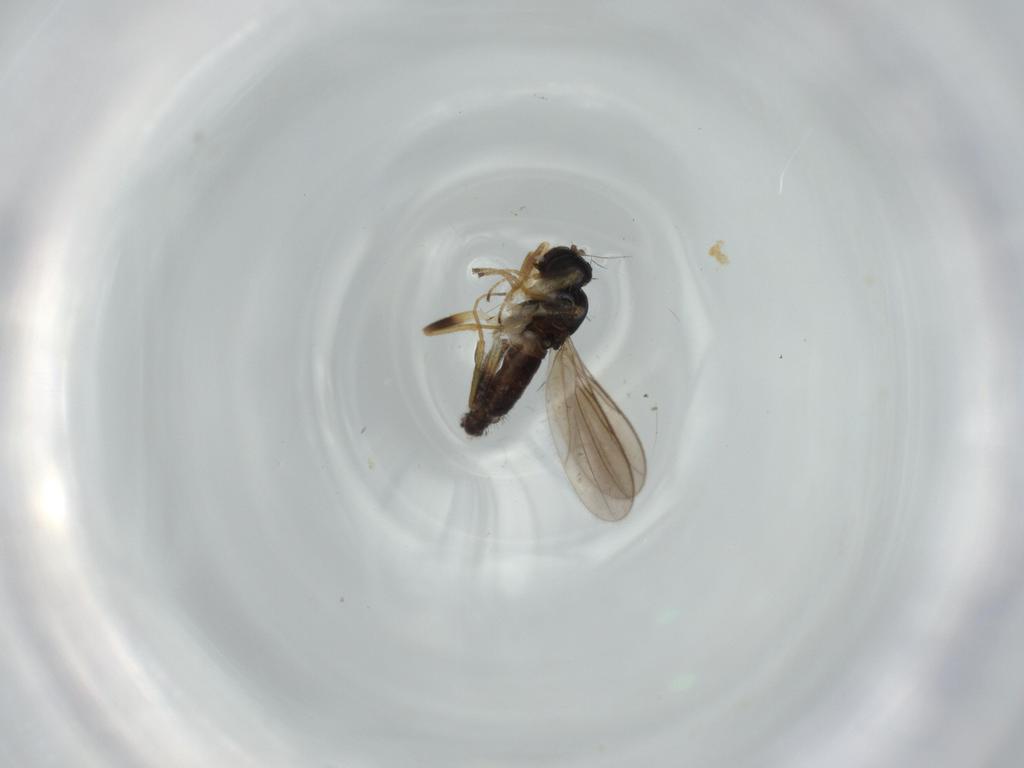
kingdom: Animalia
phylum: Arthropoda
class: Insecta
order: Diptera
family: Hybotidae
